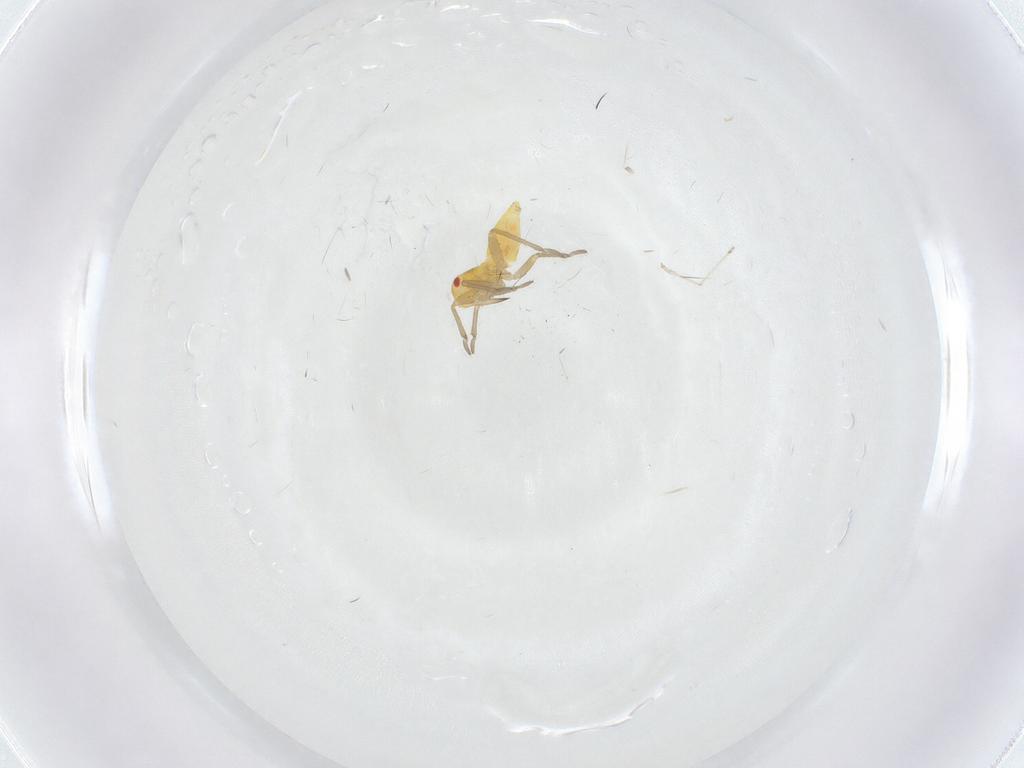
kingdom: Animalia
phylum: Arthropoda
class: Insecta
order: Hemiptera
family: Miridae
